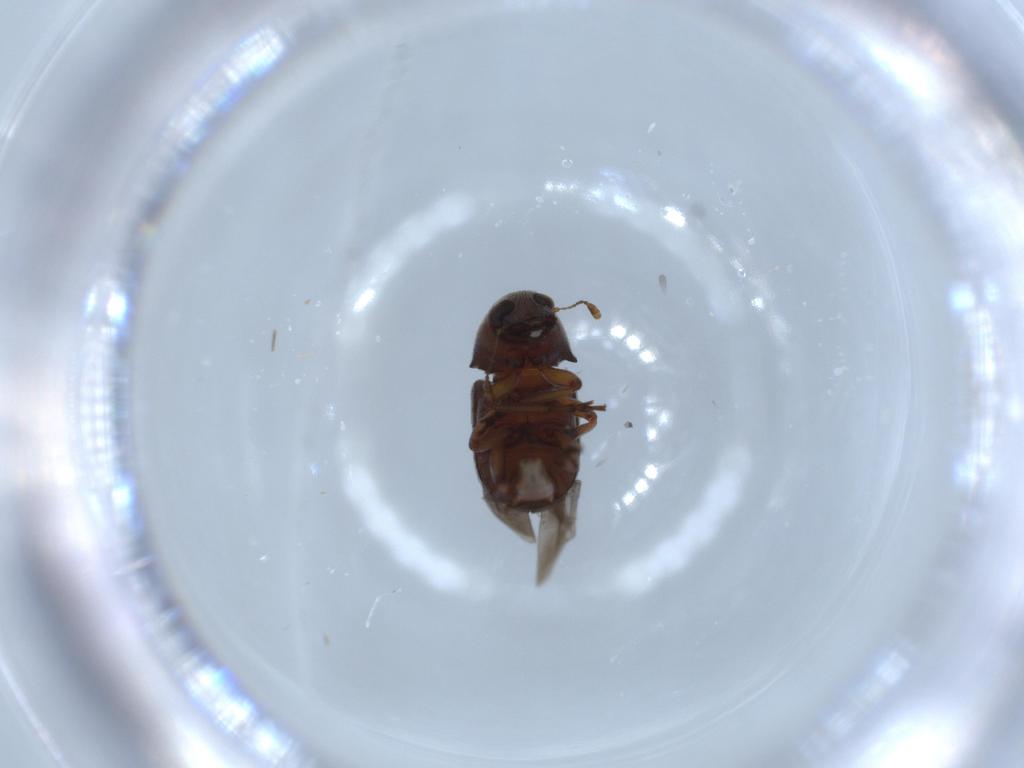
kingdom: Animalia
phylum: Arthropoda
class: Insecta
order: Coleoptera
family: Anthribidae
